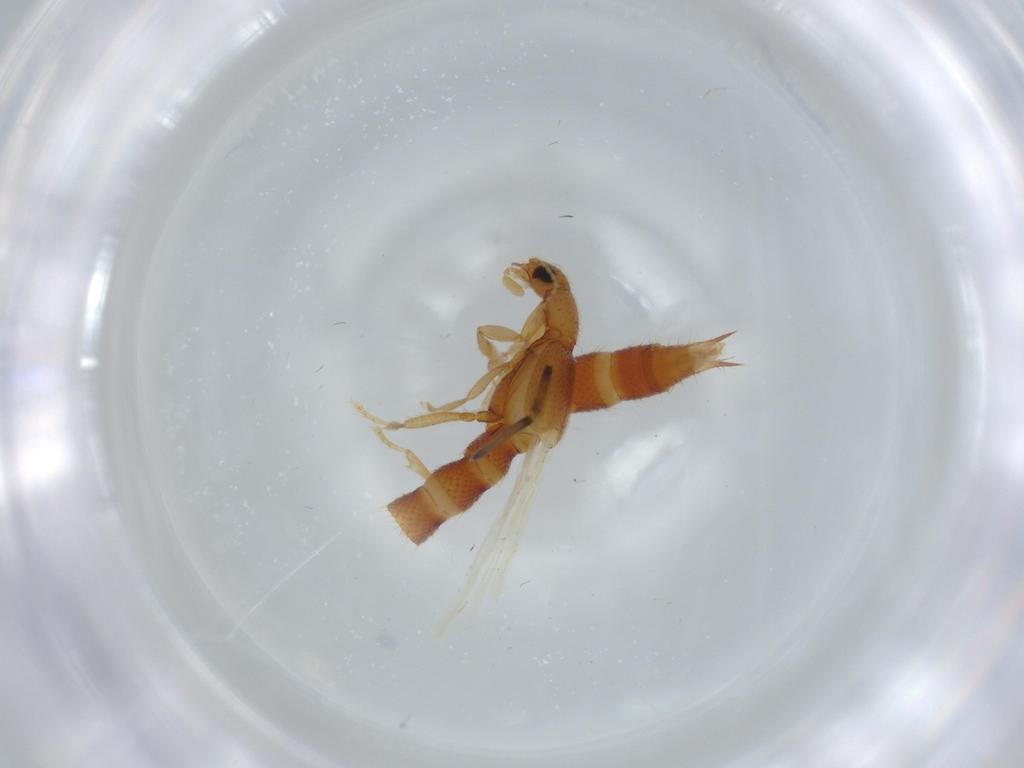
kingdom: Animalia
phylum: Arthropoda
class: Insecta
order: Coleoptera
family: Staphylinidae
